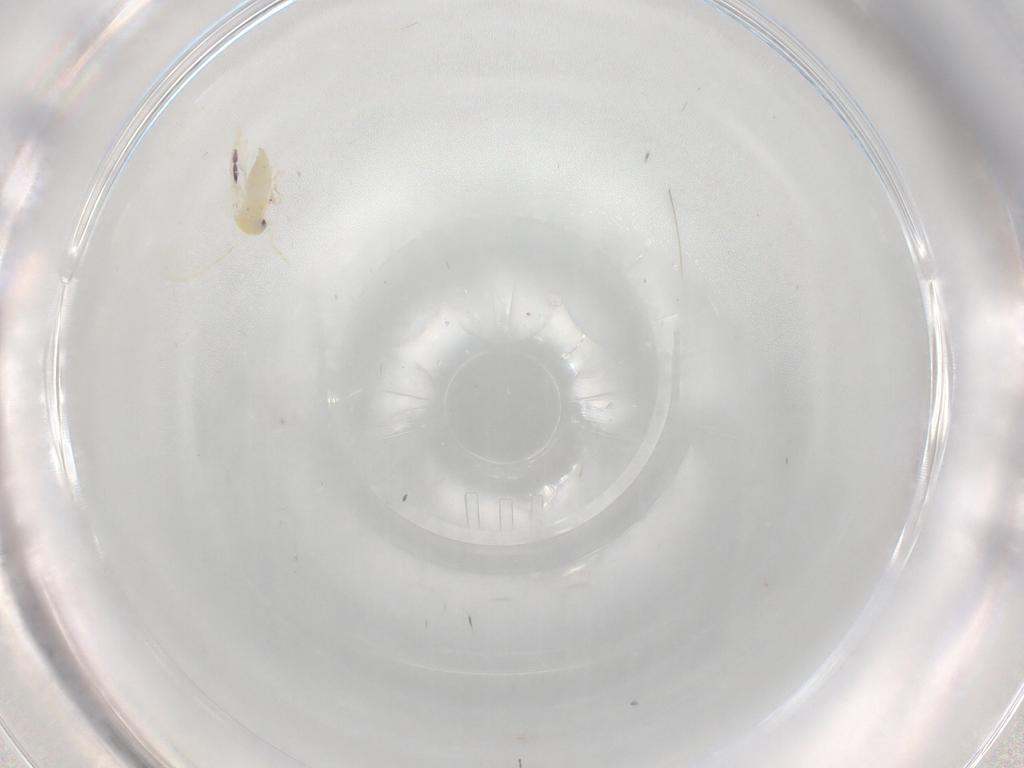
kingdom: Animalia
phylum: Arthropoda
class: Insecta
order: Hemiptera
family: Aleyrodidae
